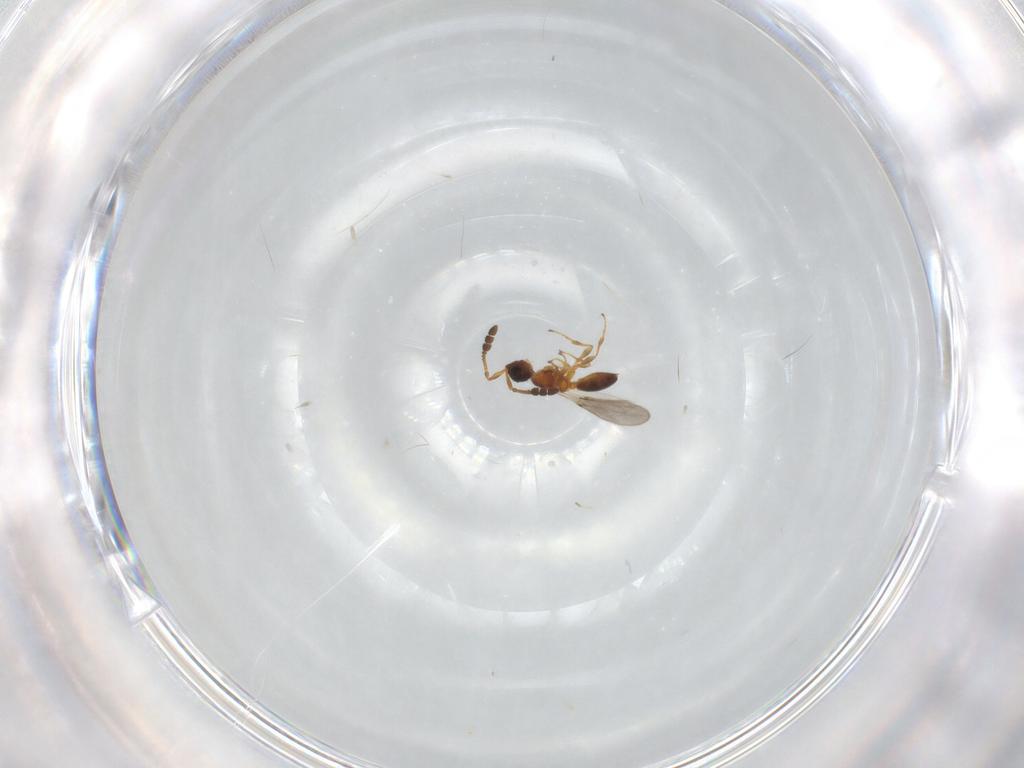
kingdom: Animalia
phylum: Arthropoda
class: Insecta
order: Hymenoptera
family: Diapriidae
